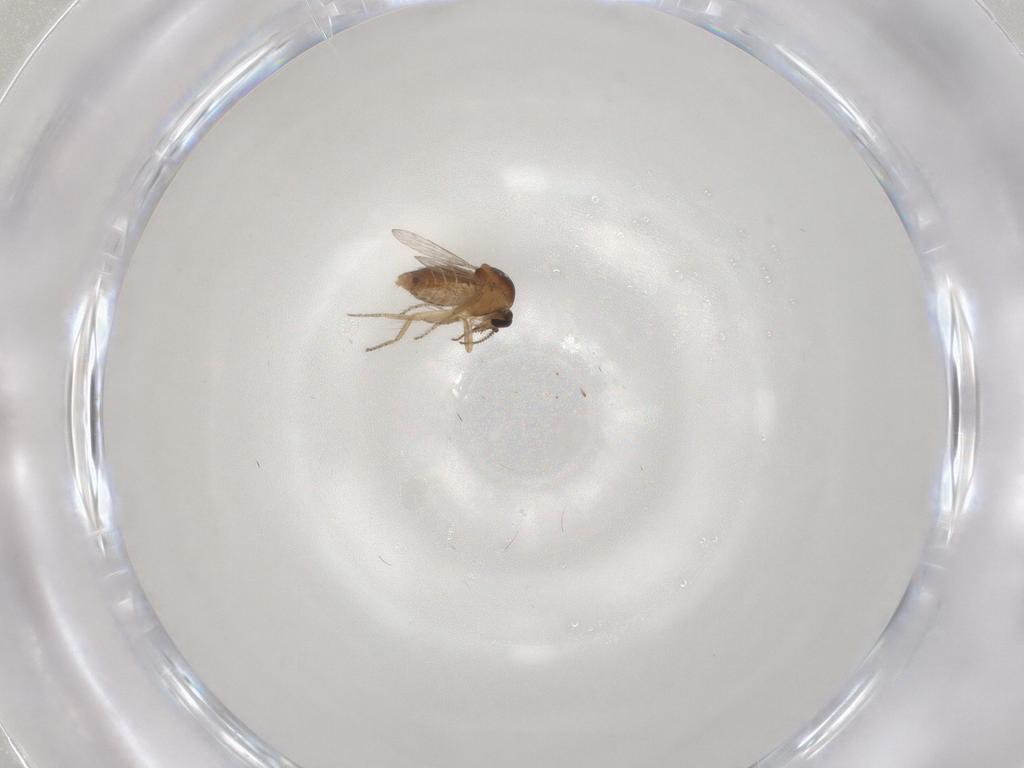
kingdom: Animalia
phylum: Arthropoda
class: Insecta
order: Diptera
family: Ceratopogonidae
